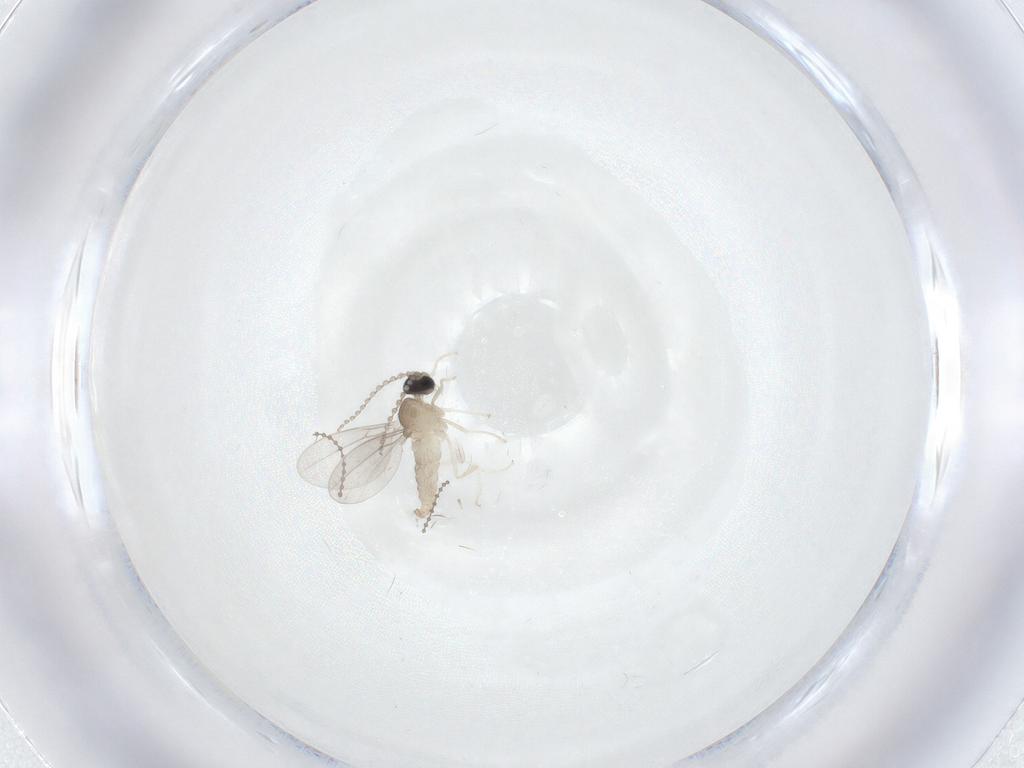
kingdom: Animalia
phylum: Arthropoda
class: Insecta
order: Diptera
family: Cecidomyiidae
